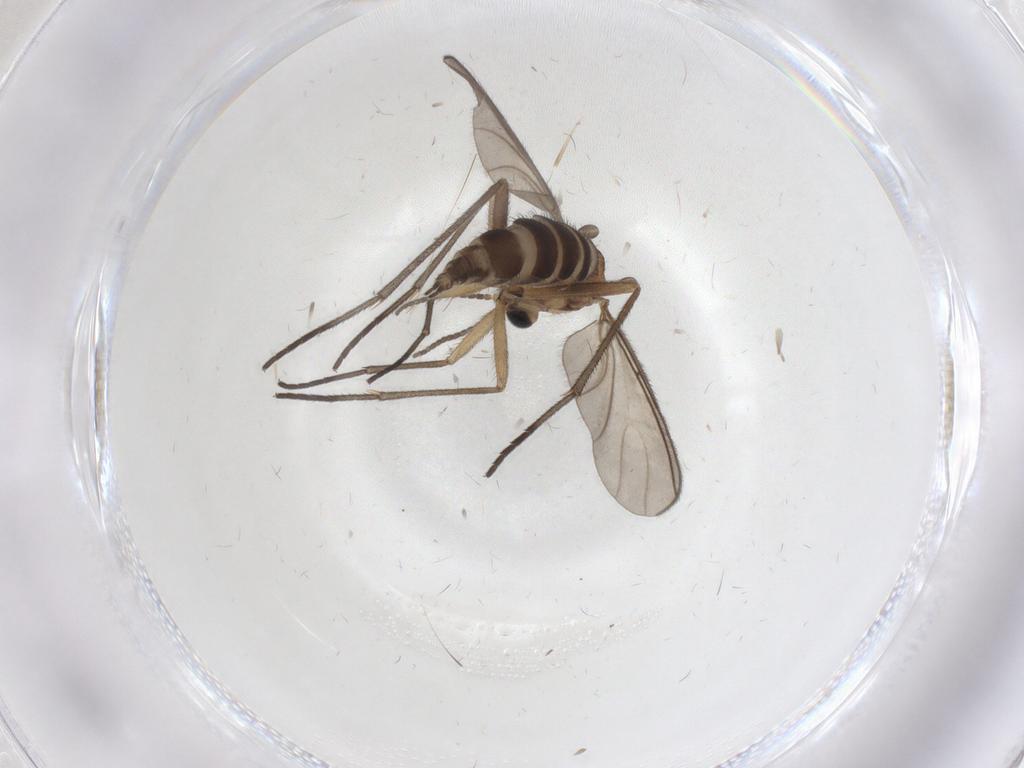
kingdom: Animalia
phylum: Arthropoda
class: Insecta
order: Diptera
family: Sciaridae
